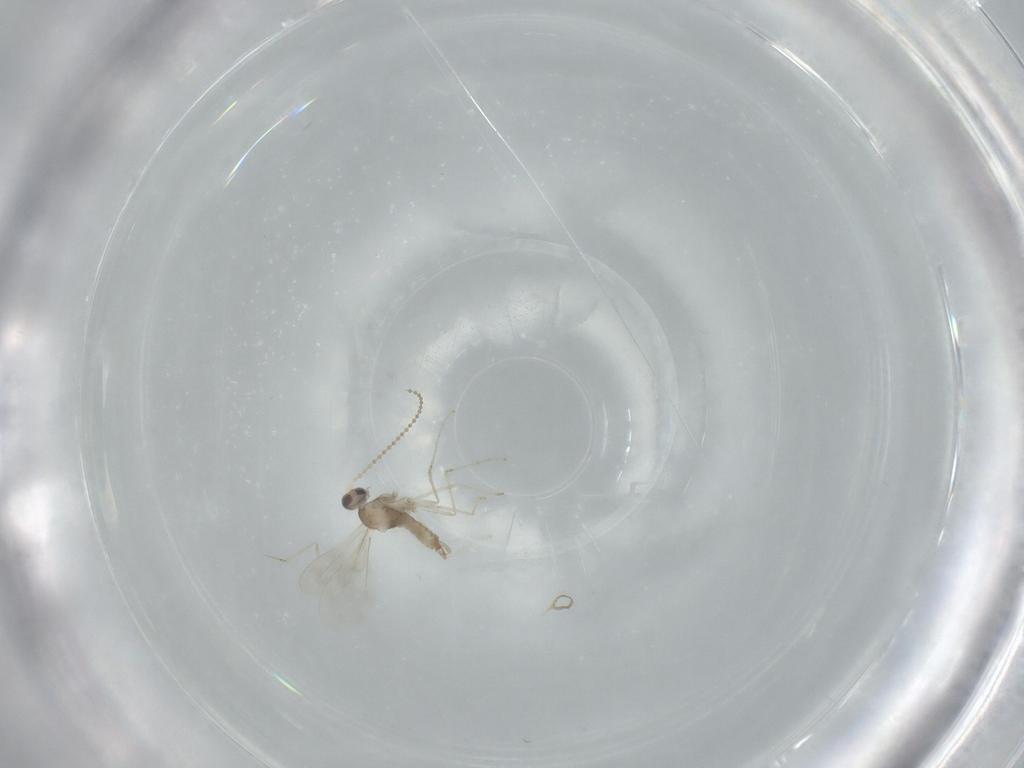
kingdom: Animalia
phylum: Arthropoda
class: Insecta
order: Diptera
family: Cecidomyiidae
